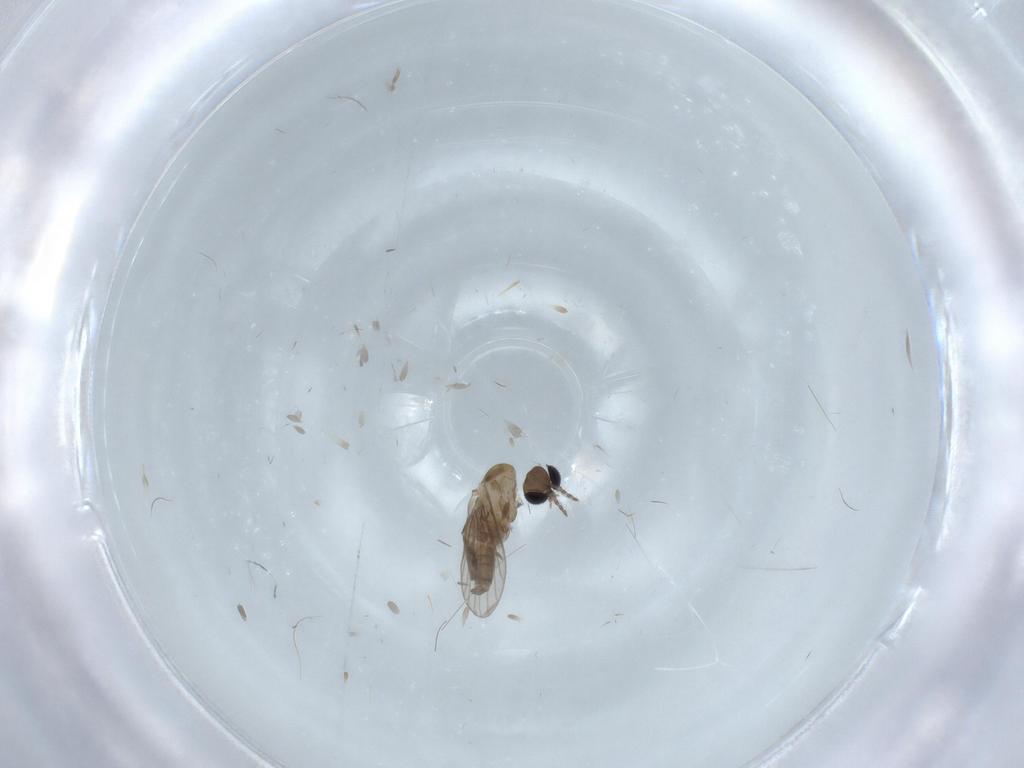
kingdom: Animalia
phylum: Arthropoda
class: Insecta
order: Diptera
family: Psychodidae
